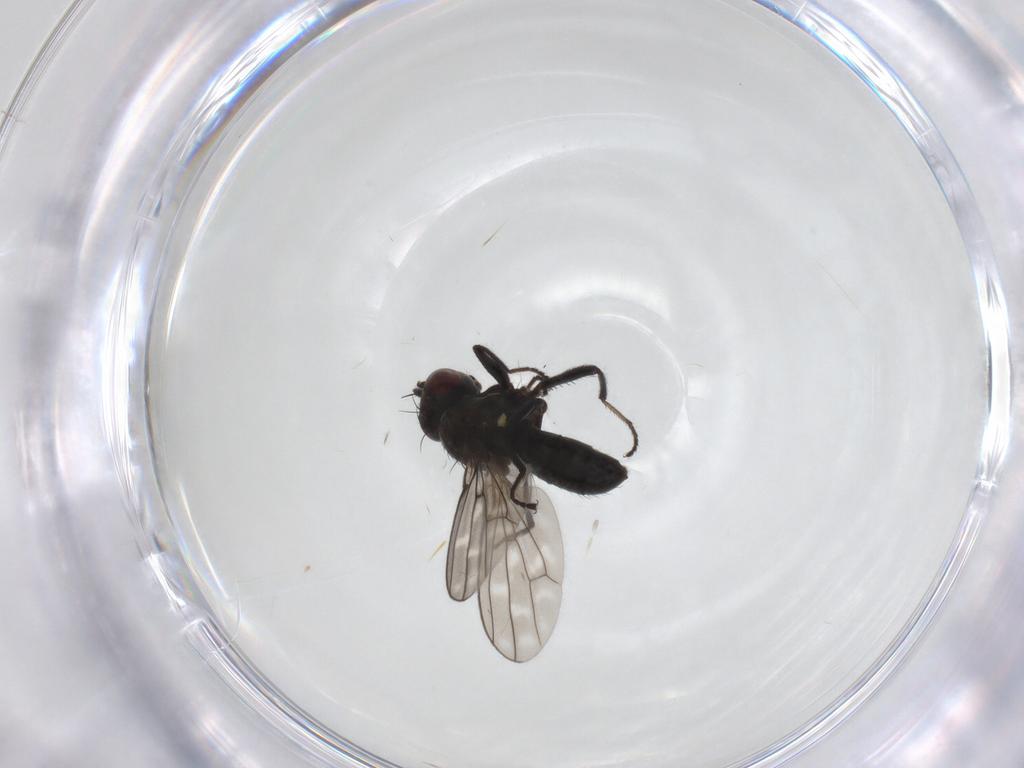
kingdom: Animalia
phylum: Arthropoda
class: Insecta
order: Diptera
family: Ephydridae
